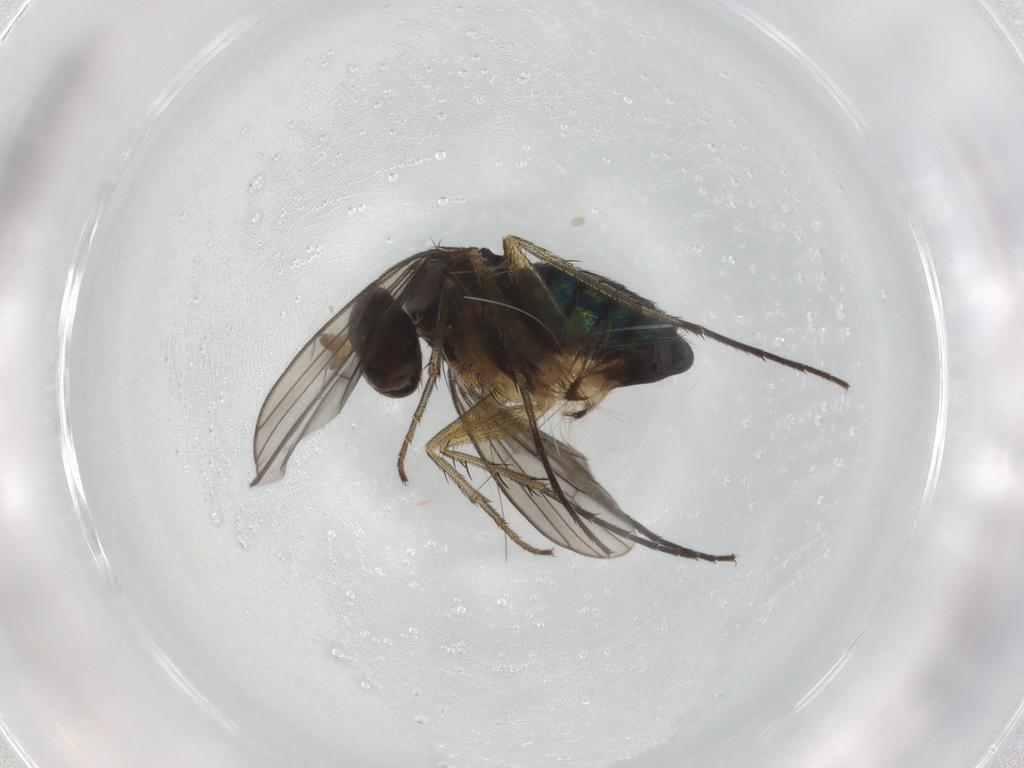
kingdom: Animalia
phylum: Arthropoda
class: Insecta
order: Diptera
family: Dolichopodidae
